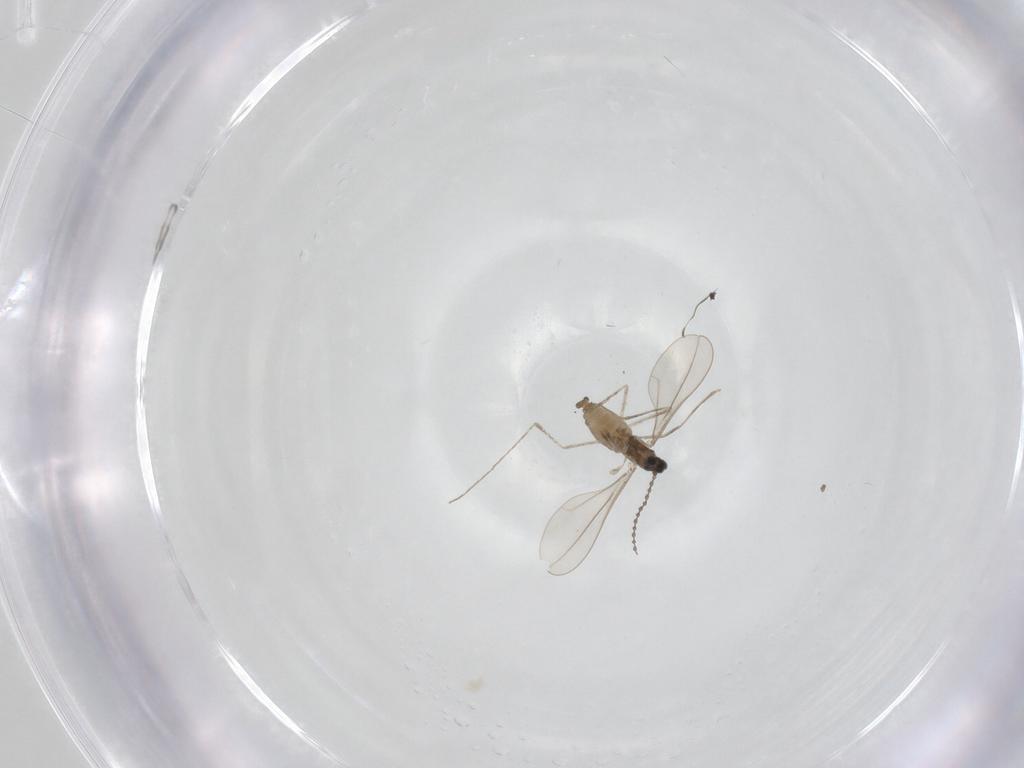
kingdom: Animalia
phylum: Arthropoda
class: Insecta
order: Diptera
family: Cecidomyiidae
